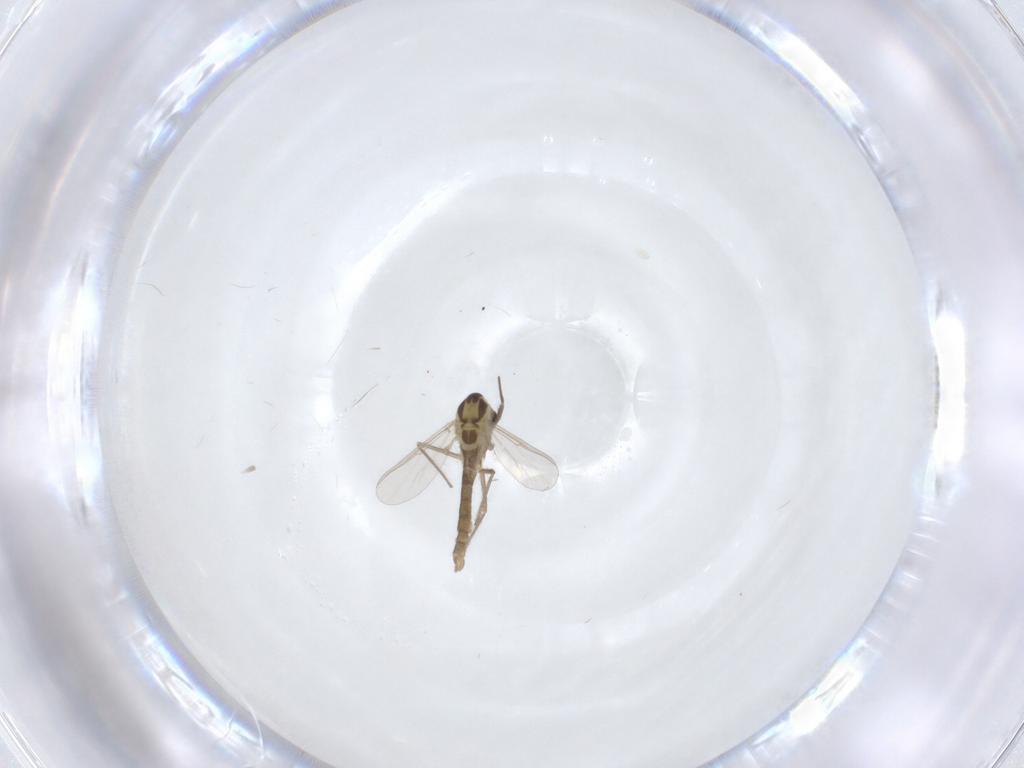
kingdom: Animalia
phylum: Arthropoda
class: Insecta
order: Diptera
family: Chironomidae
